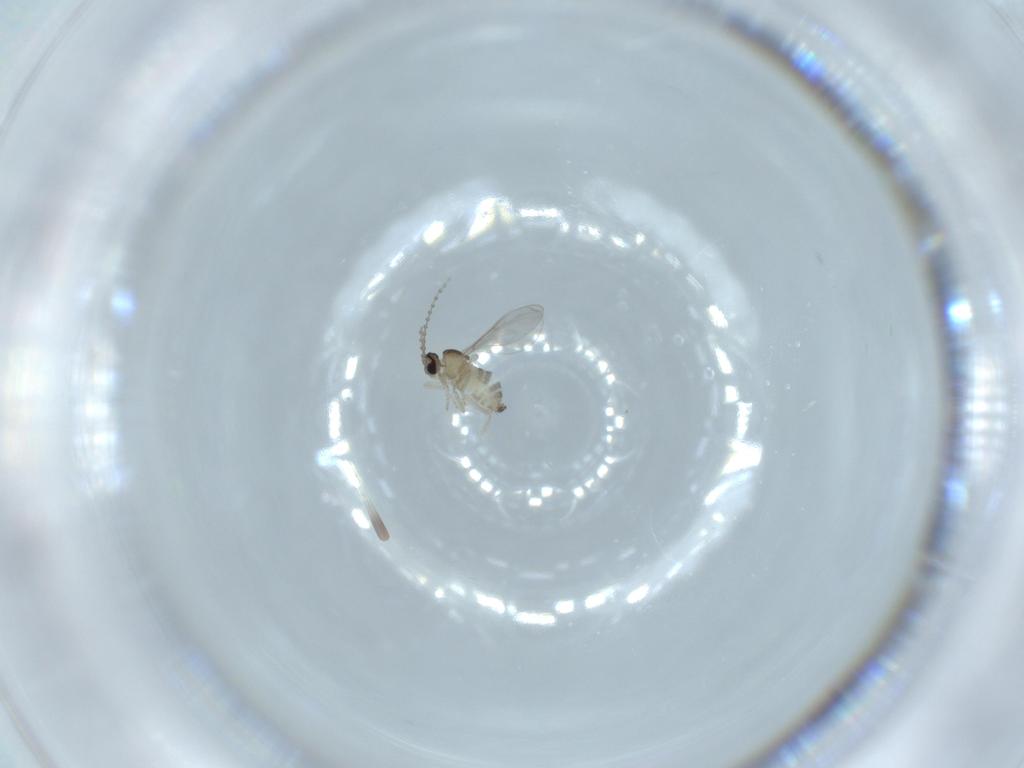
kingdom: Animalia
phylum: Arthropoda
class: Insecta
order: Diptera
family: Cecidomyiidae
